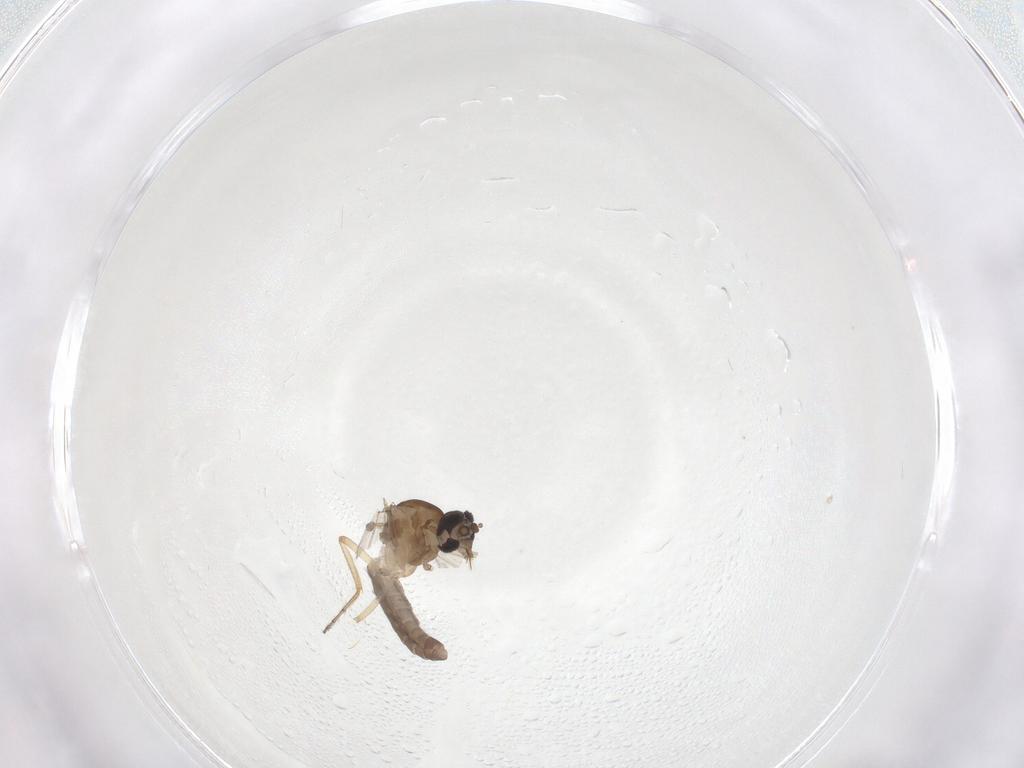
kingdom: Animalia
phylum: Arthropoda
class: Insecta
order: Diptera
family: Ceratopogonidae
